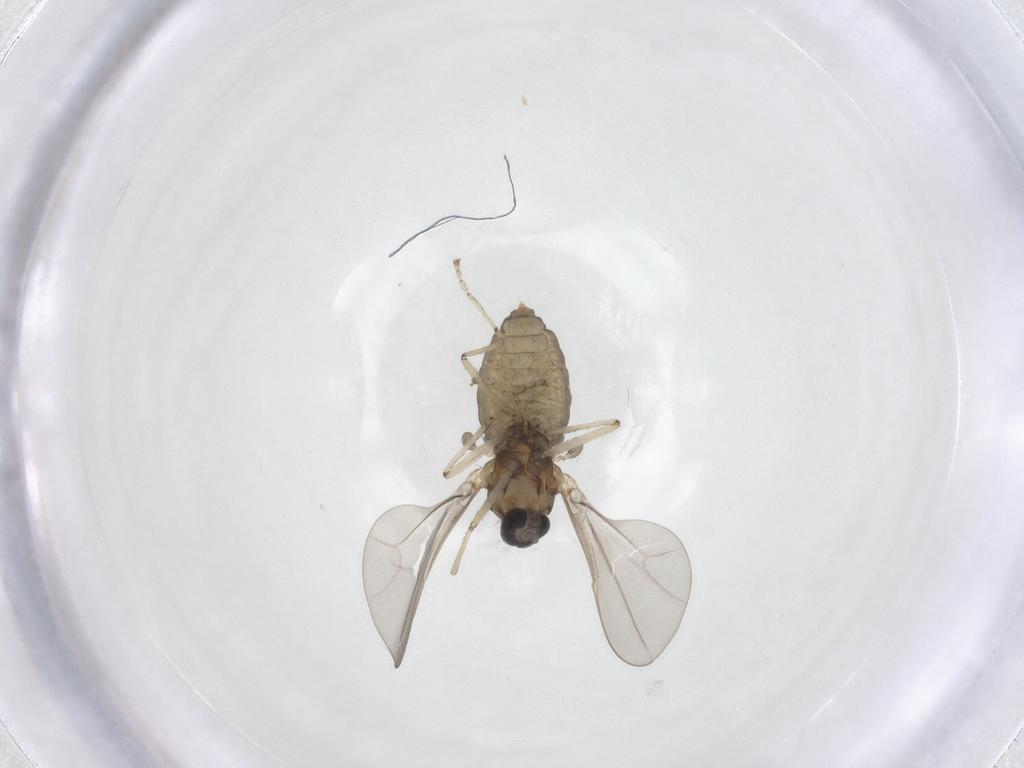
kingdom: Animalia
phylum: Arthropoda
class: Insecta
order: Diptera
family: Cecidomyiidae
